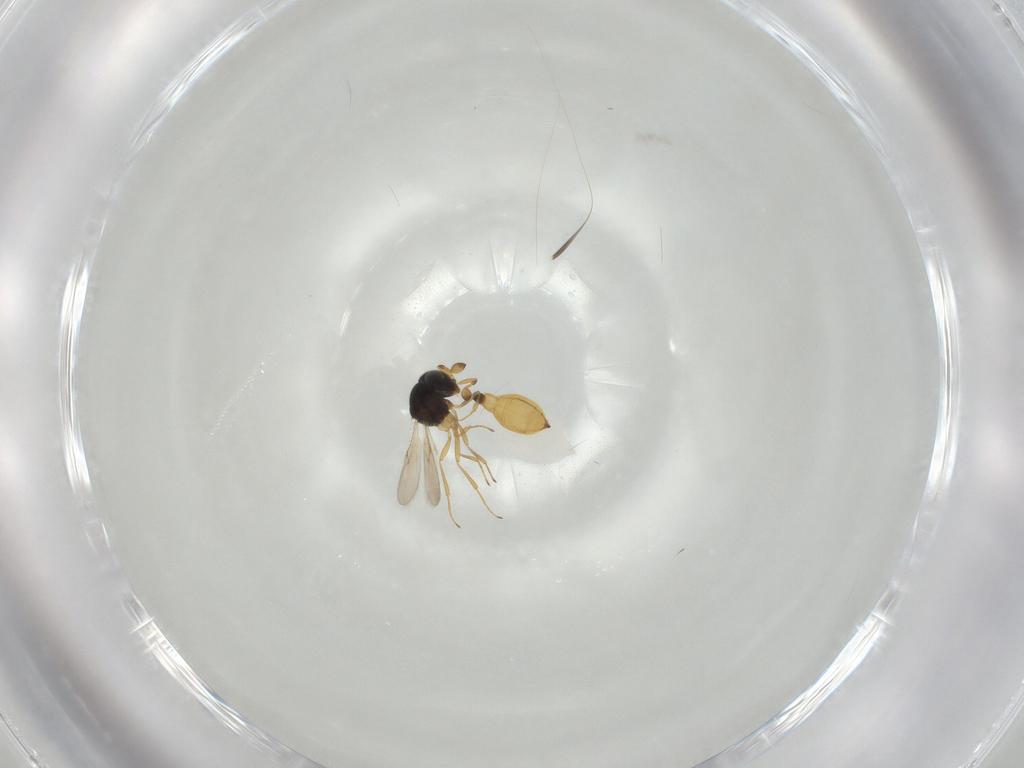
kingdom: Animalia
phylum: Arthropoda
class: Insecta
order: Hymenoptera
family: Scelionidae
